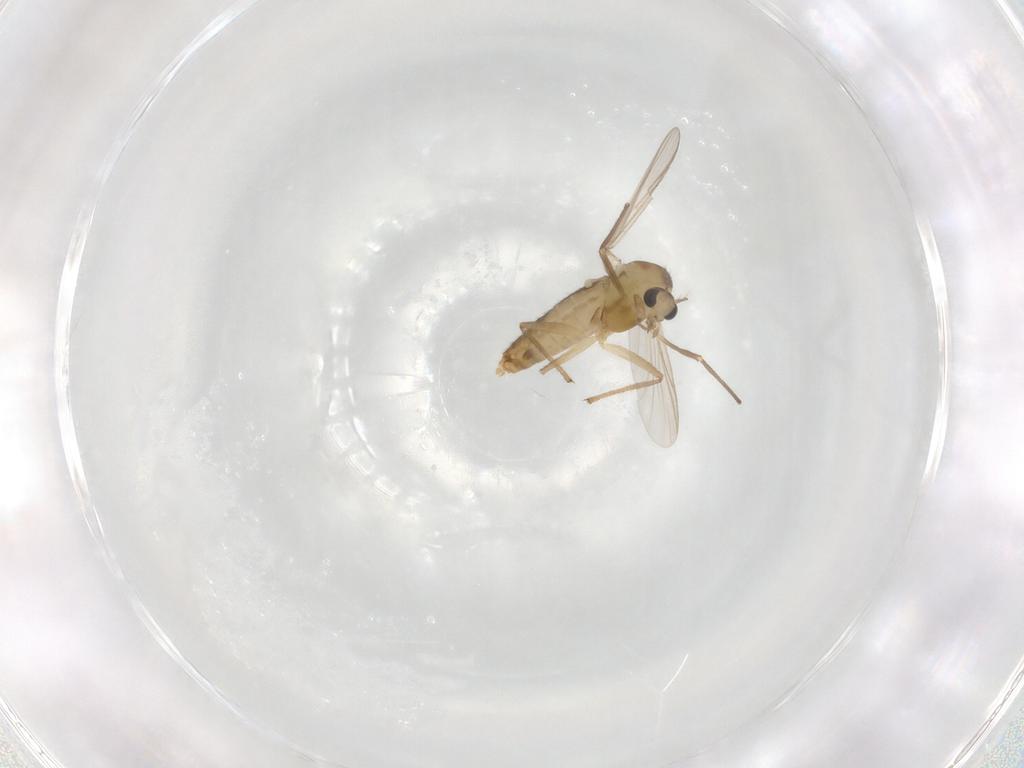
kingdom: Animalia
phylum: Arthropoda
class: Insecta
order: Diptera
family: Chironomidae
